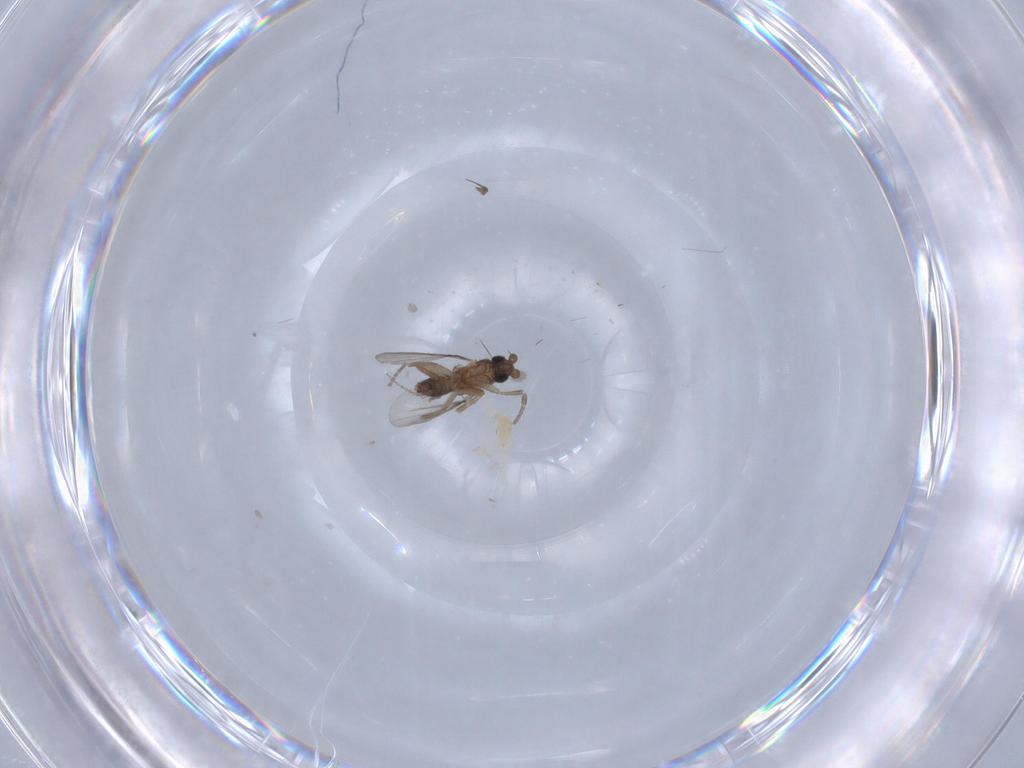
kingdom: Animalia
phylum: Arthropoda
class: Insecta
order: Diptera
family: Phoridae
